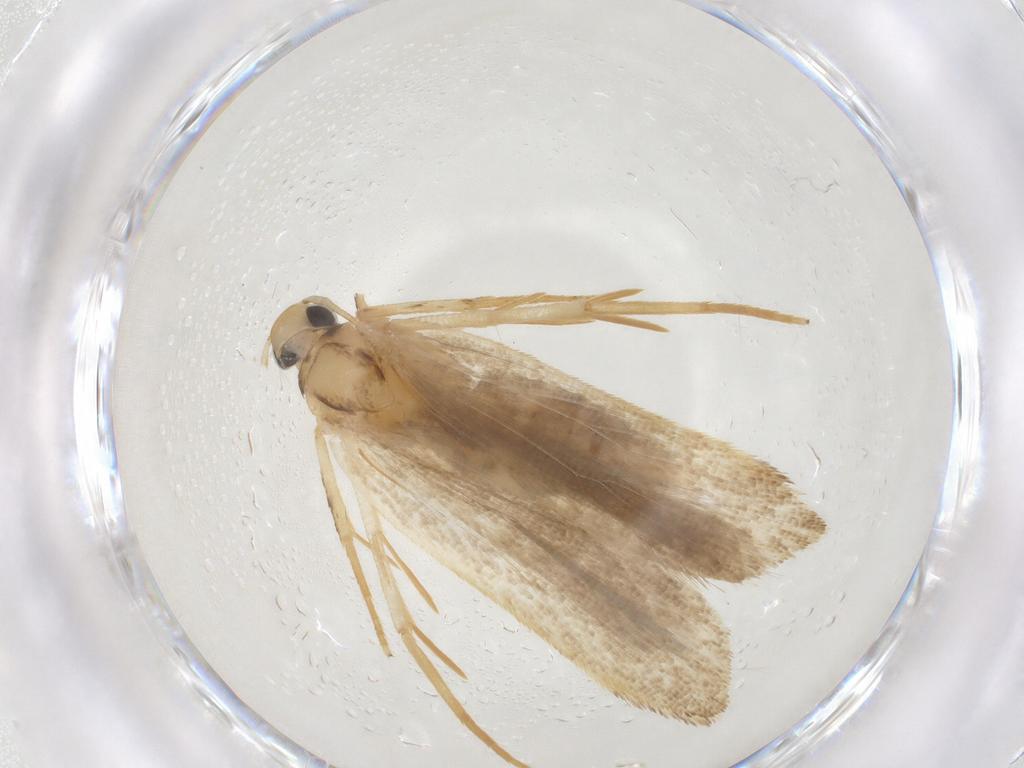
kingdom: Animalia
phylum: Arthropoda
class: Insecta
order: Lepidoptera
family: Gelechiidae
